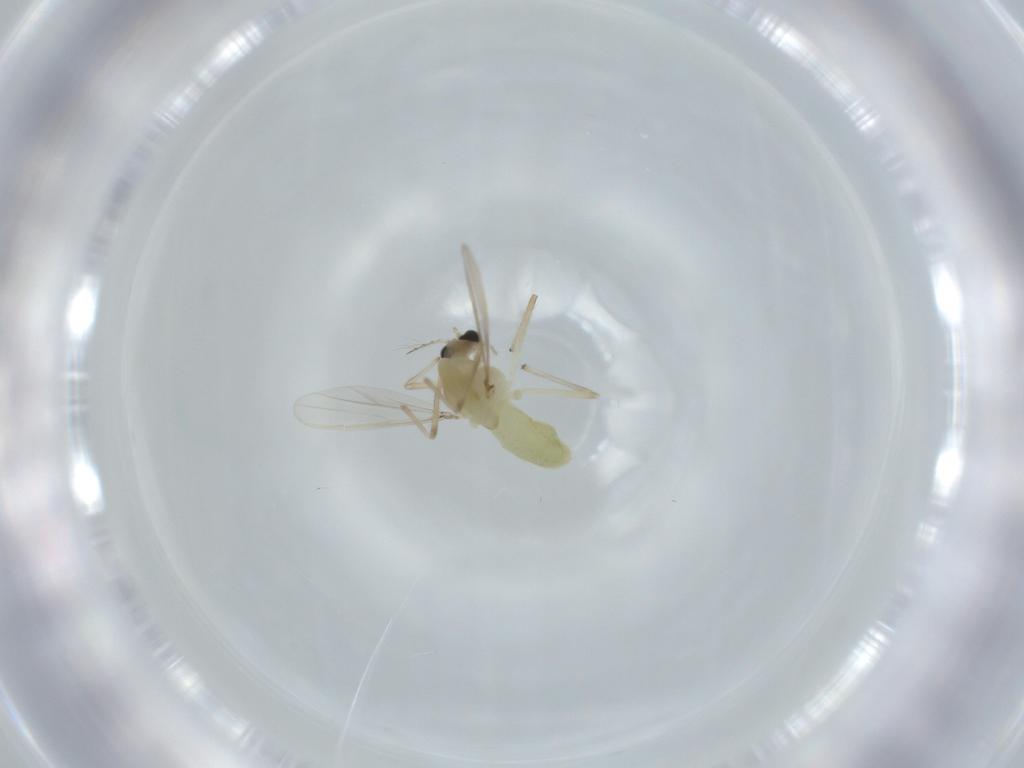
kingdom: Animalia
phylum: Arthropoda
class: Insecta
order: Diptera
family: Chironomidae
